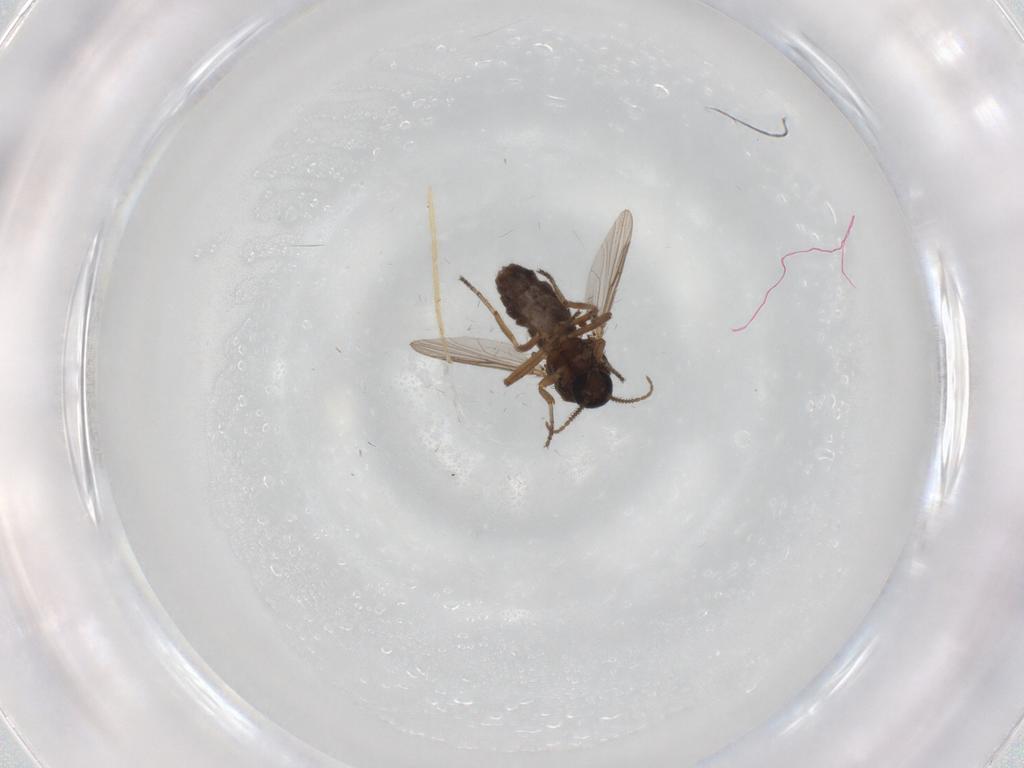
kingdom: Animalia
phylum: Arthropoda
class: Insecta
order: Diptera
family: Ceratopogonidae
